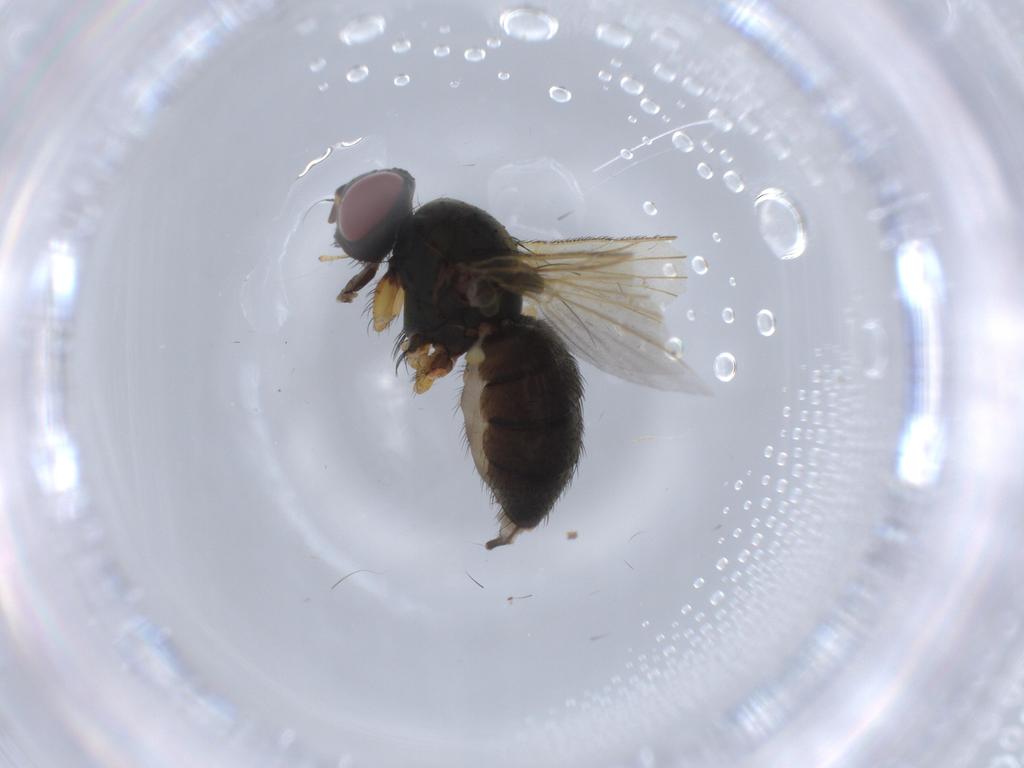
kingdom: Animalia
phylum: Arthropoda
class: Insecta
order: Diptera
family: Muscidae
